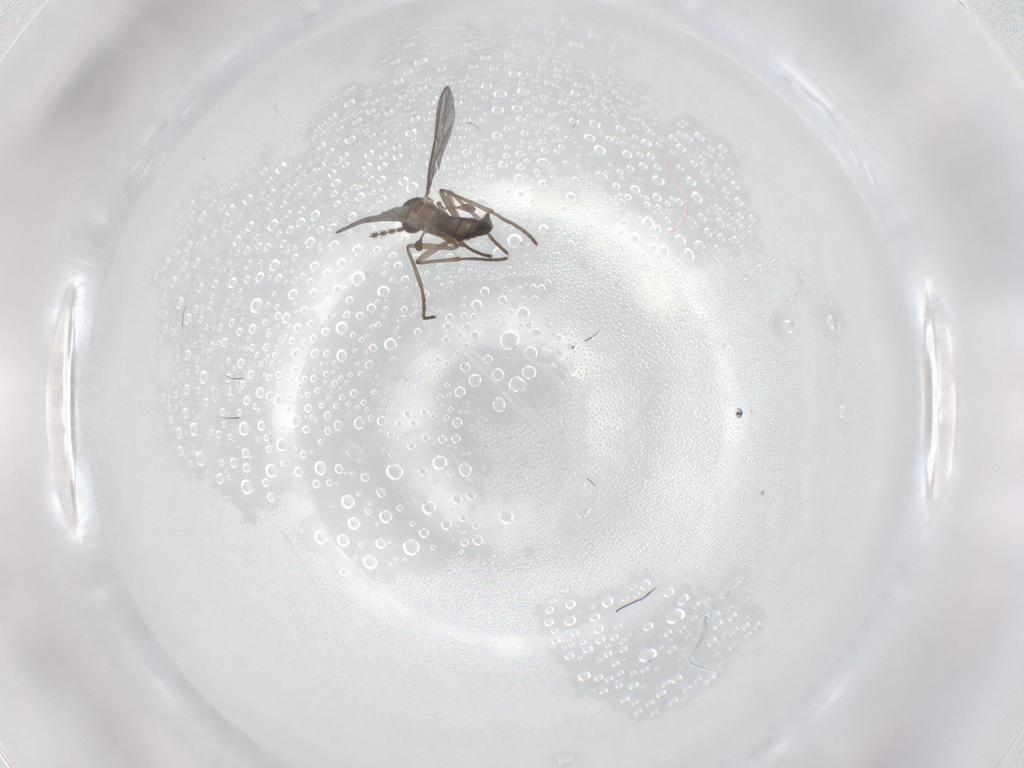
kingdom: Animalia
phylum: Arthropoda
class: Insecta
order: Diptera
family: Sciaridae
